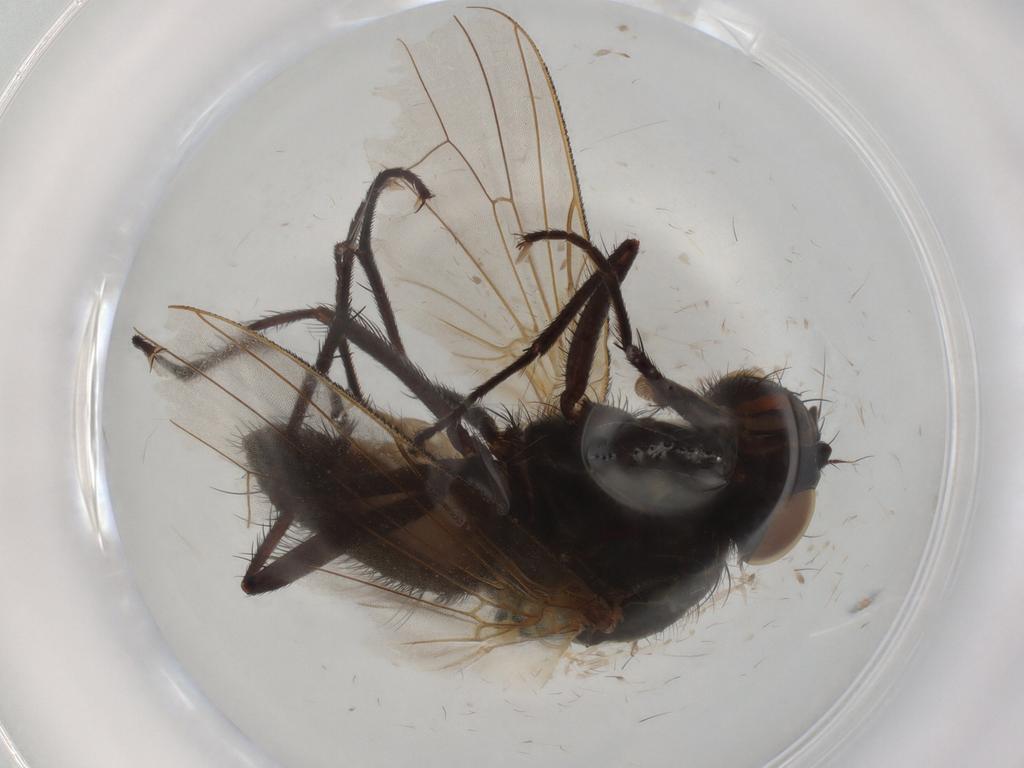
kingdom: Animalia
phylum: Arthropoda
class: Insecta
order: Diptera
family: Anthomyiidae
